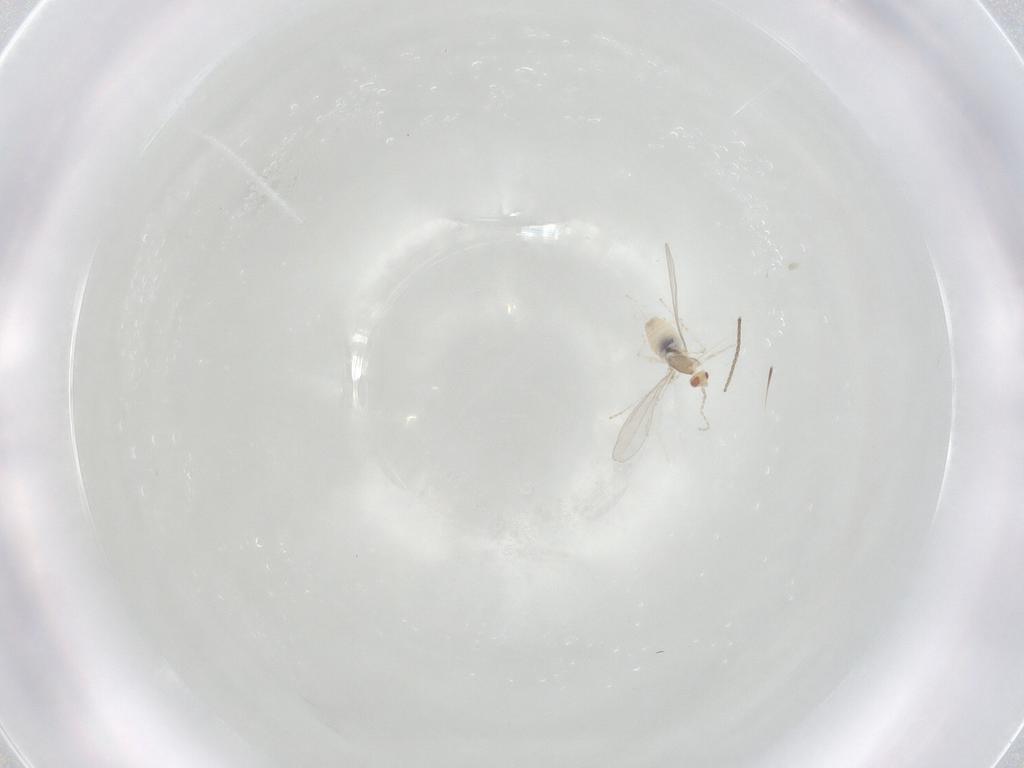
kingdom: Animalia
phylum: Arthropoda
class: Insecta
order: Diptera
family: Cecidomyiidae
